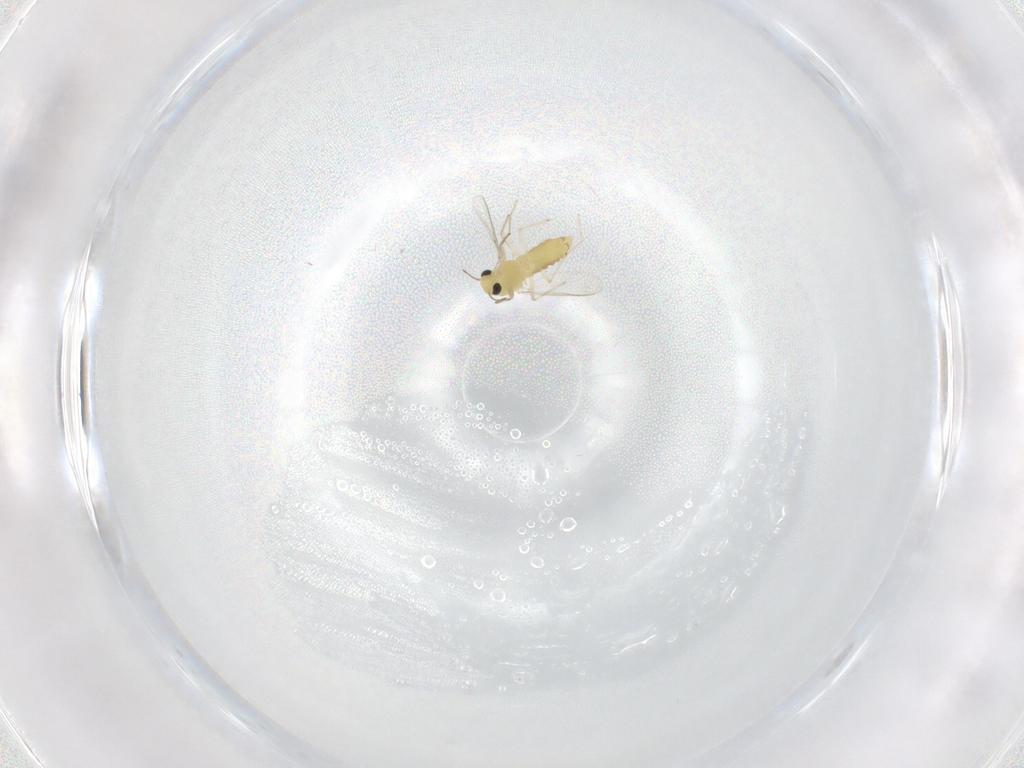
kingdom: Animalia
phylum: Arthropoda
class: Insecta
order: Diptera
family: Chironomidae
